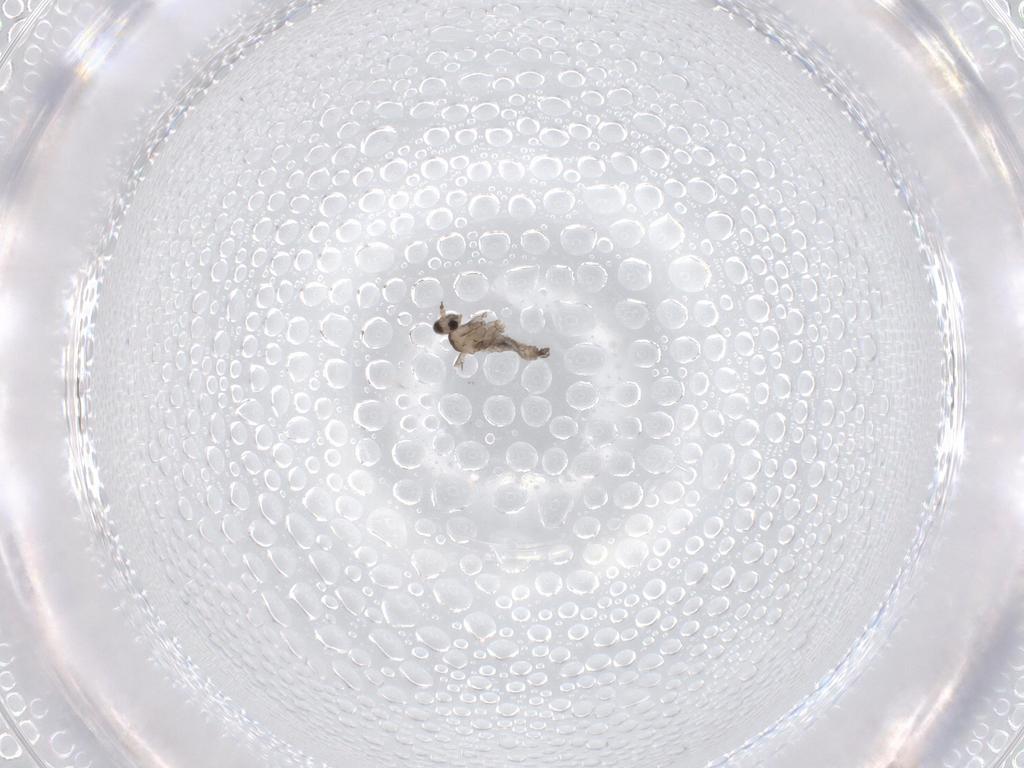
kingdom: Animalia
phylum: Arthropoda
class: Insecta
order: Diptera
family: Cecidomyiidae
